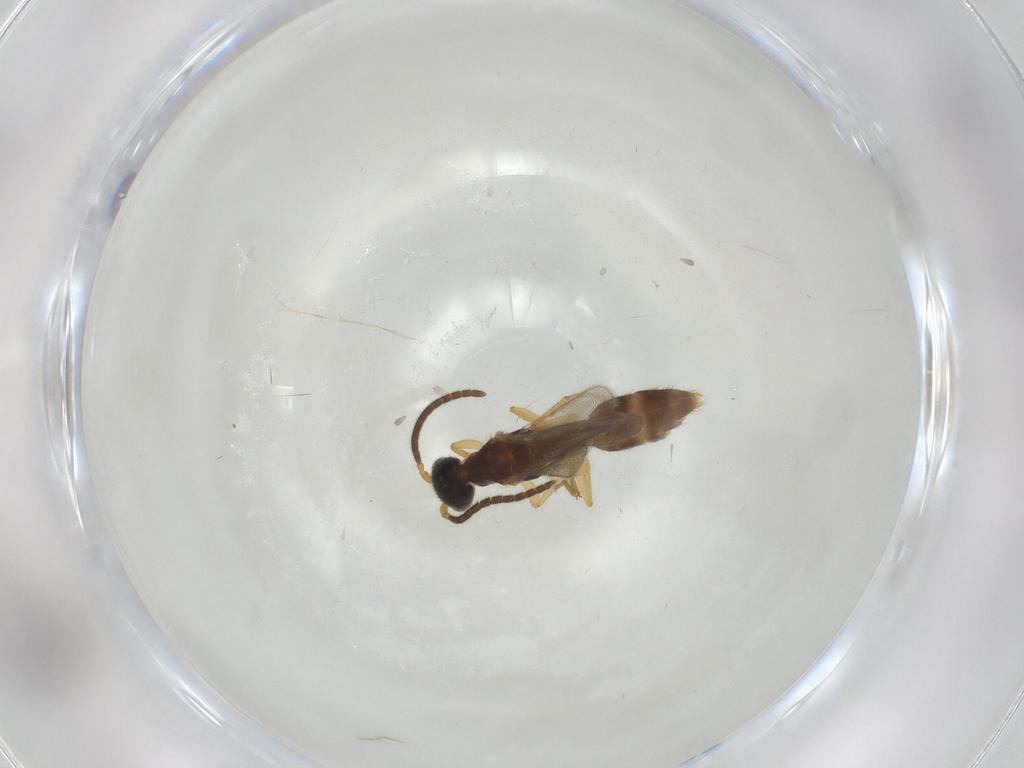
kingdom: Animalia
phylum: Arthropoda
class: Insecta
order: Hymenoptera
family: Bethylidae
